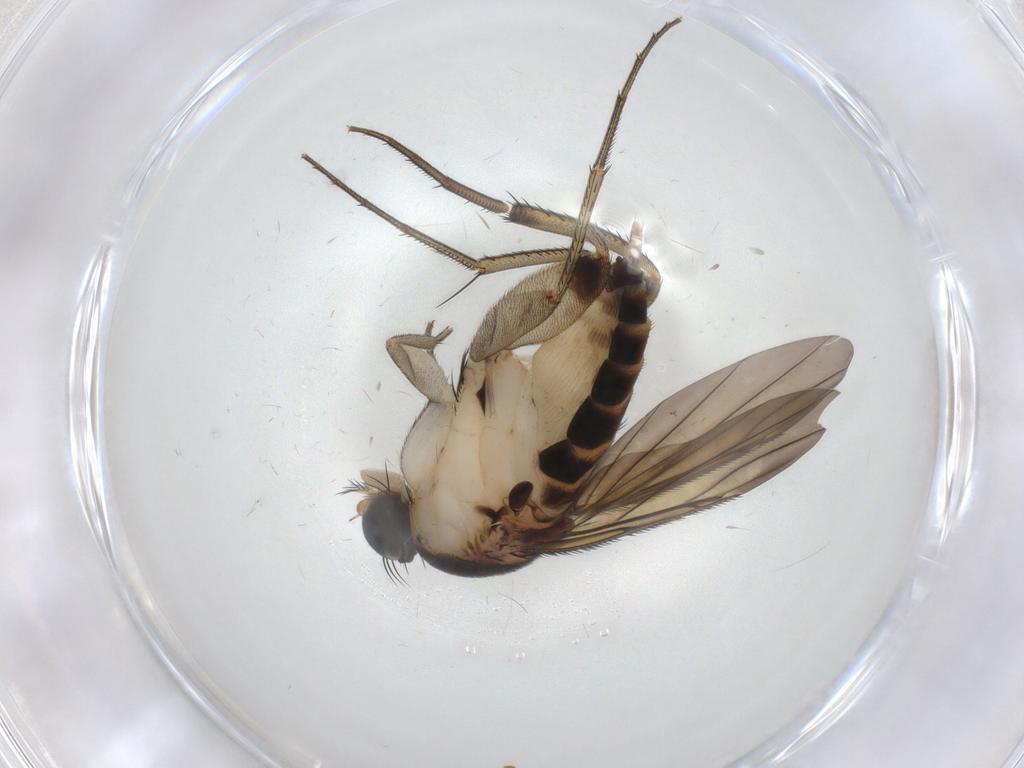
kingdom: Animalia
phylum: Arthropoda
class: Insecta
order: Diptera
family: Phoridae
